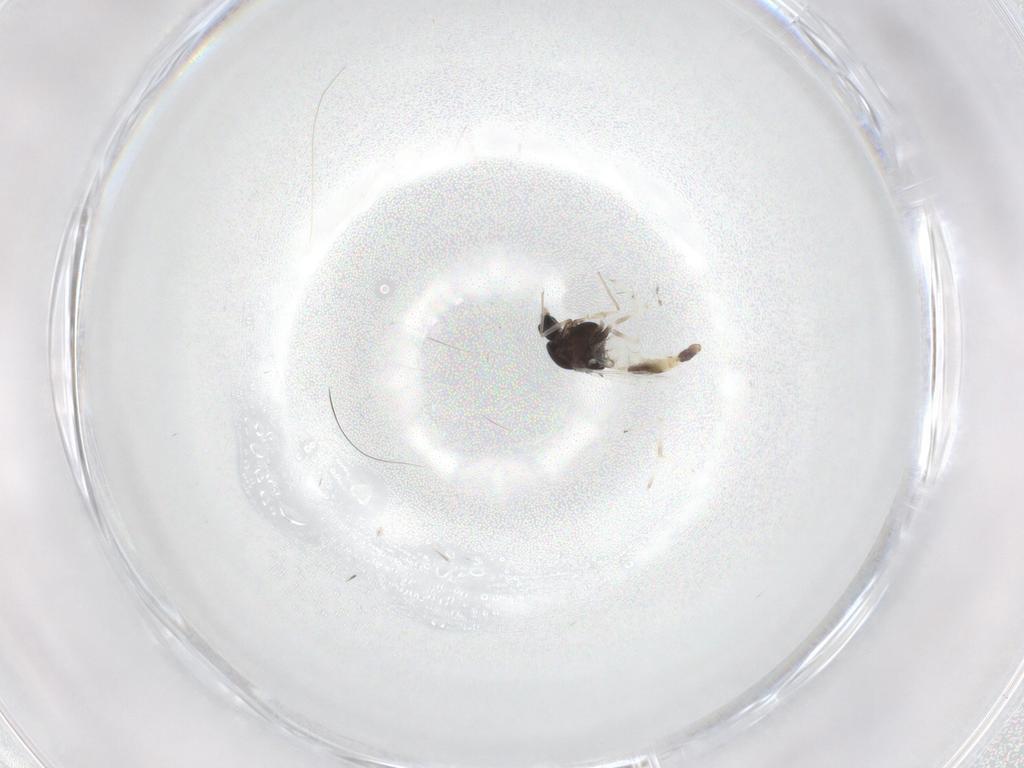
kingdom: Animalia
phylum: Arthropoda
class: Insecta
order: Diptera
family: Chironomidae
